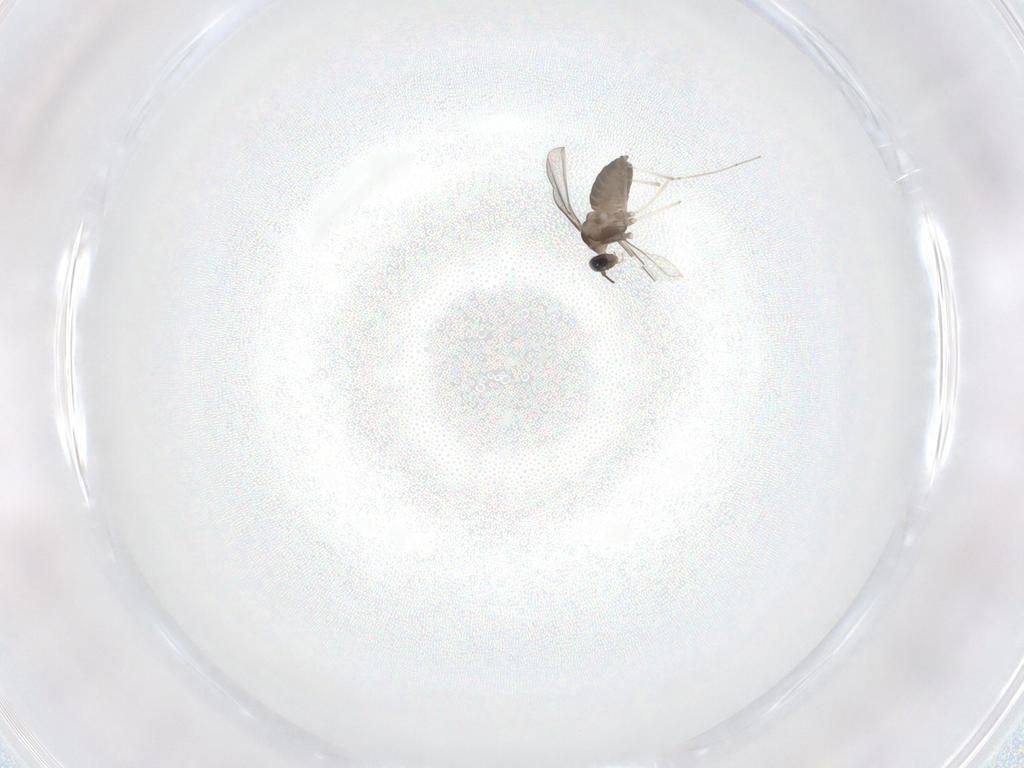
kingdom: Animalia
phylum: Arthropoda
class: Insecta
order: Diptera
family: Cecidomyiidae
